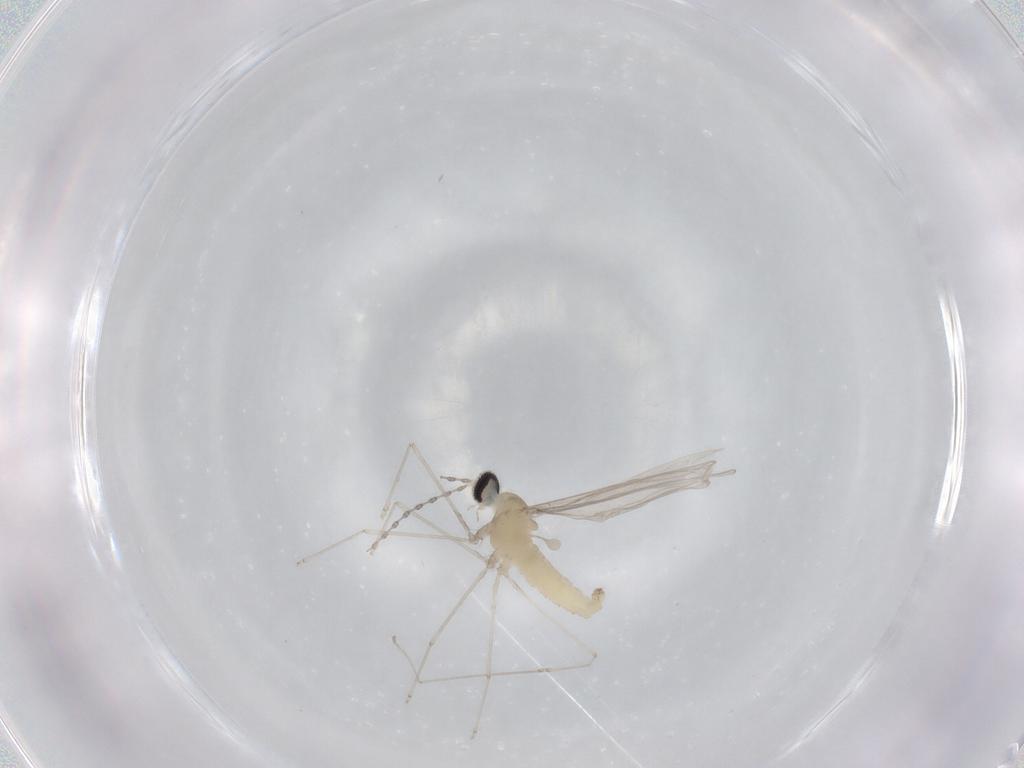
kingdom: Animalia
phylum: Arthropoda
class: Insecta
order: Diptera
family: Cecidomyiidae
